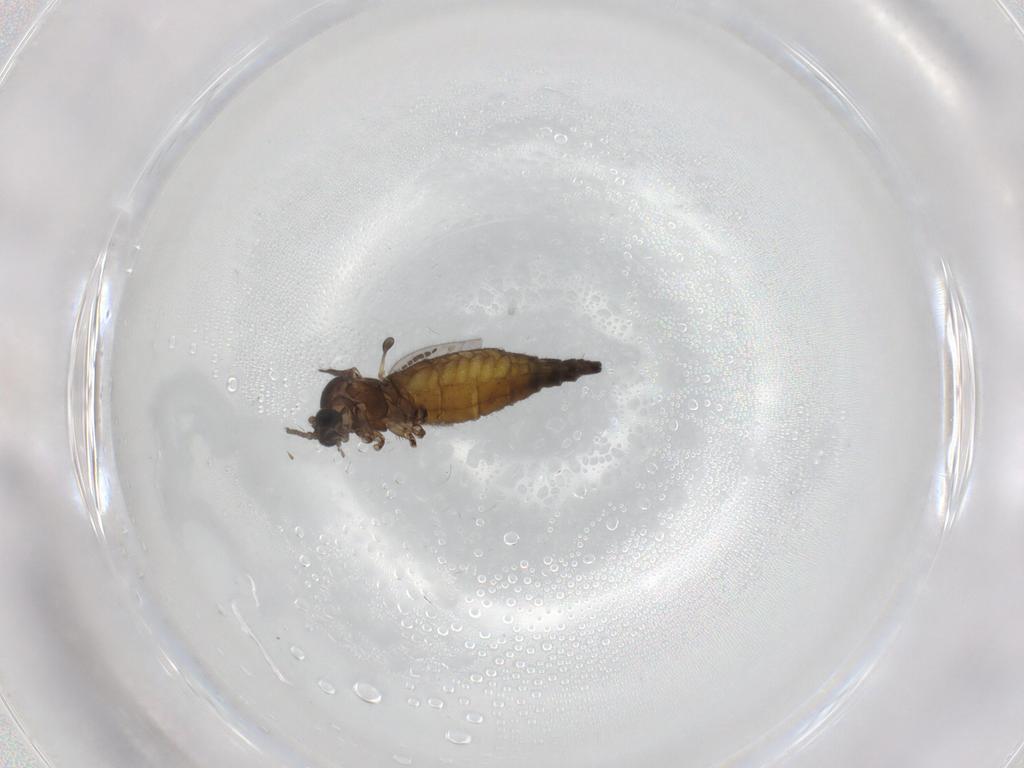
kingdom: Animalia
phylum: Arthropoda
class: Insecta
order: Diptera
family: Sciaridae
